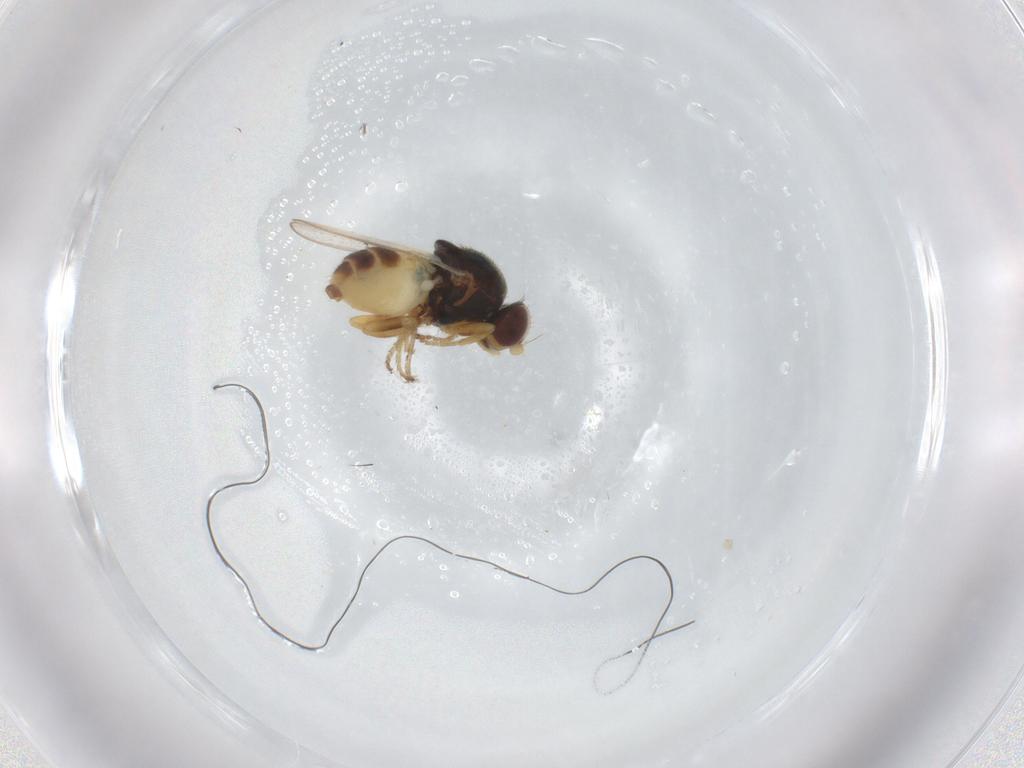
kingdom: Animalia
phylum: Arthropoda
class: Insecta
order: Diptera
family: Chloropidae
